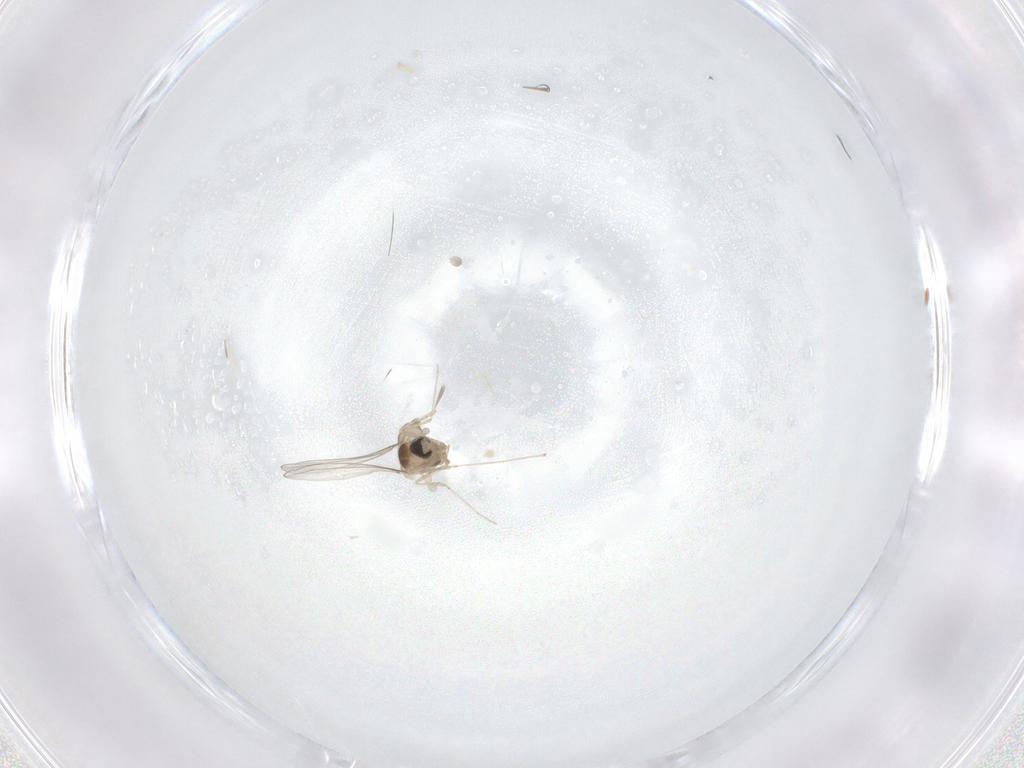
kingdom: Animalia
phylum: Arthropoda
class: Insecta
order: Diptera
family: Cecidomyiidae
